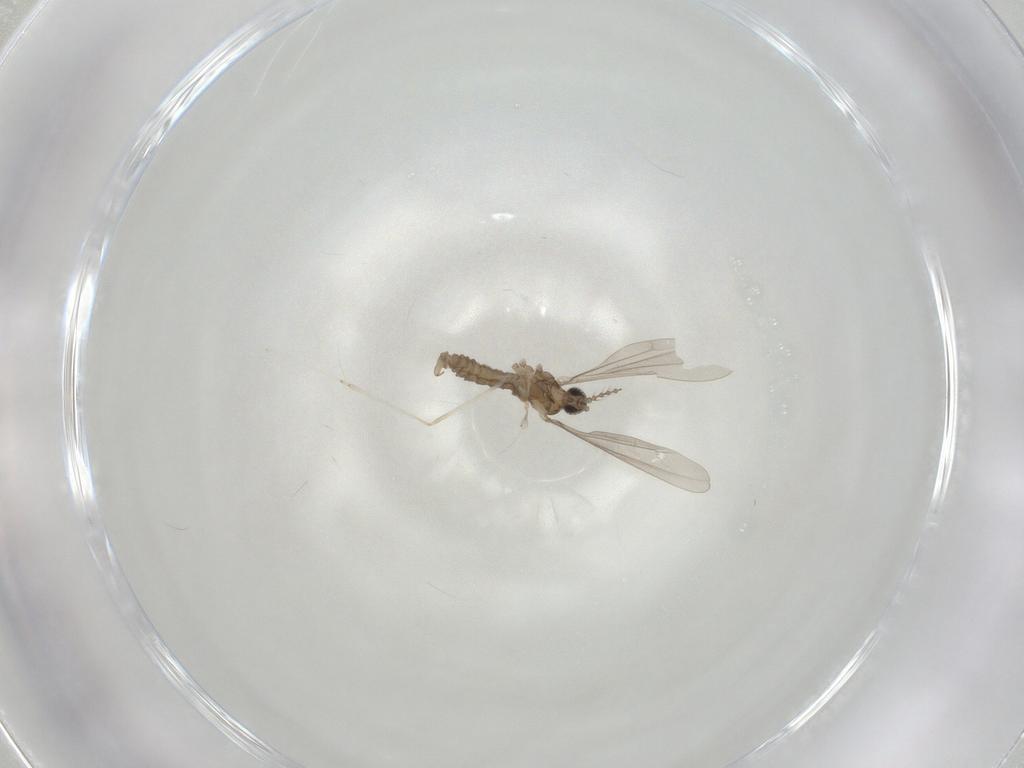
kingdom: Animalia
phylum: Arthropoda
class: Insecta
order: Diptera
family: Cecidomyiidae
